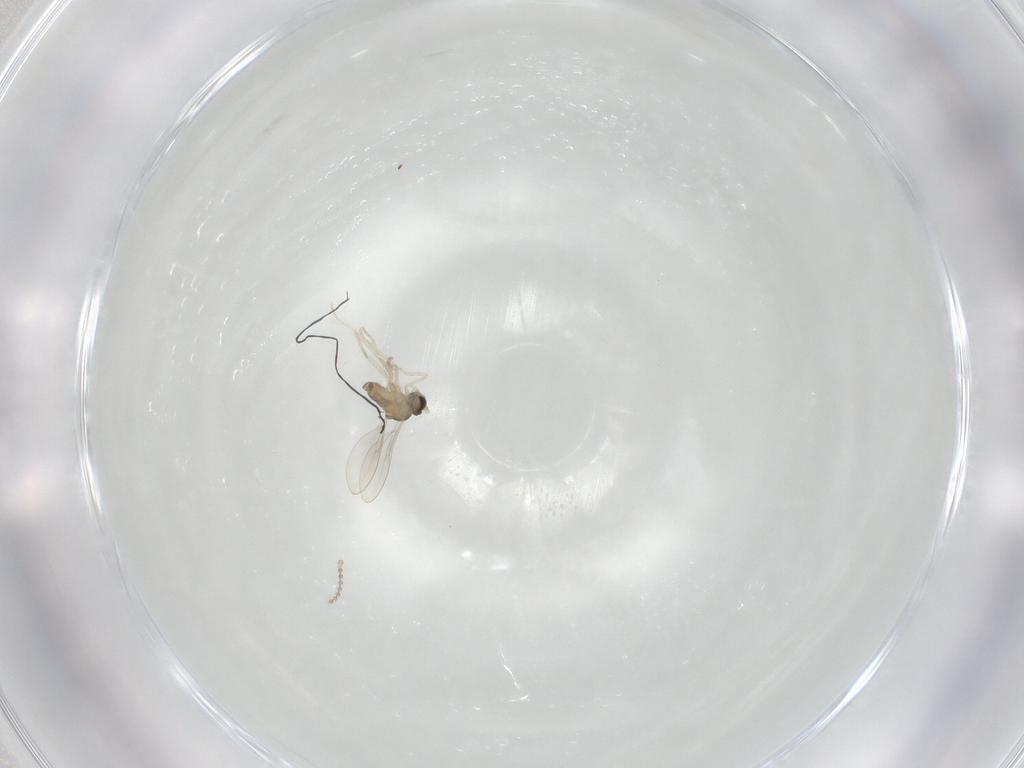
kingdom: Animalia
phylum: Arthropoda
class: Insecta
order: Diptera
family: Cecidomyiidae
